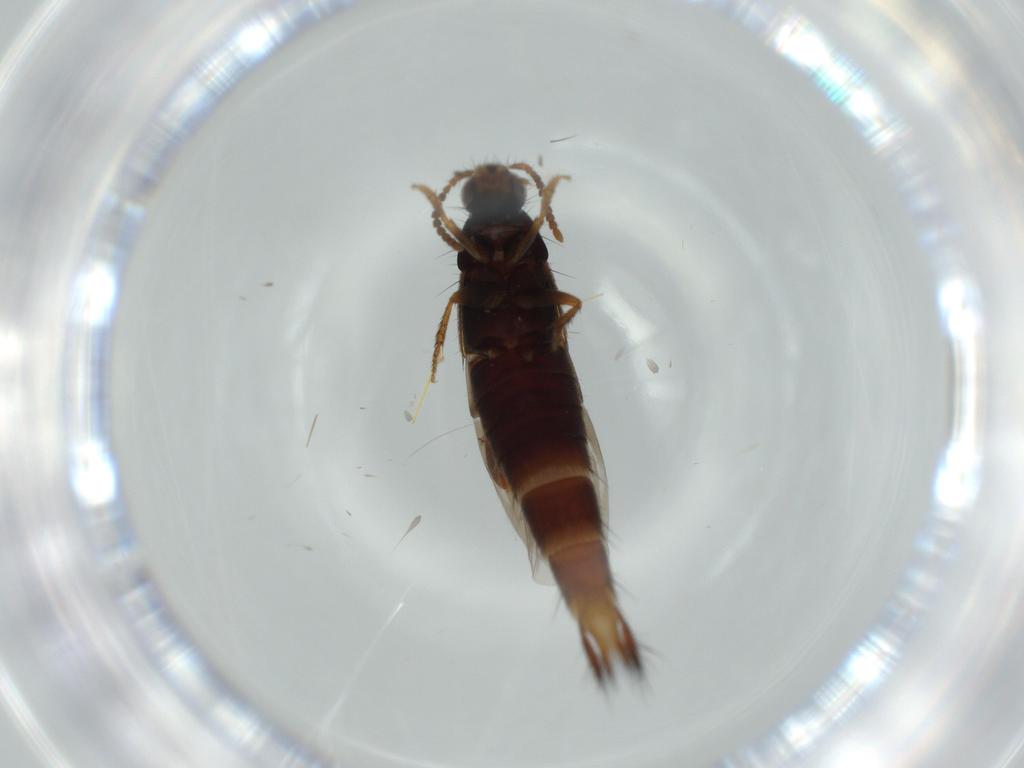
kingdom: Animalia
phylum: Arthropoda
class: Insecta
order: Coleoptera
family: Staphylinidae
